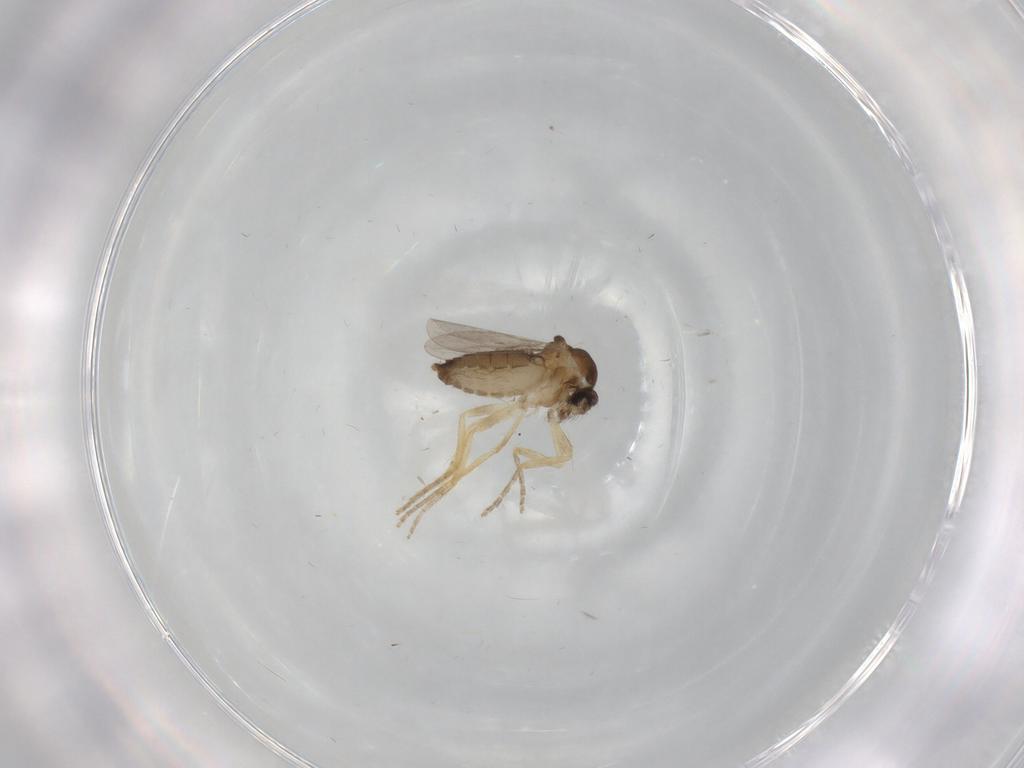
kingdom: Animalia
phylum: Arthropoda
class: Insecta
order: Diptera
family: Ceratopogonidae
